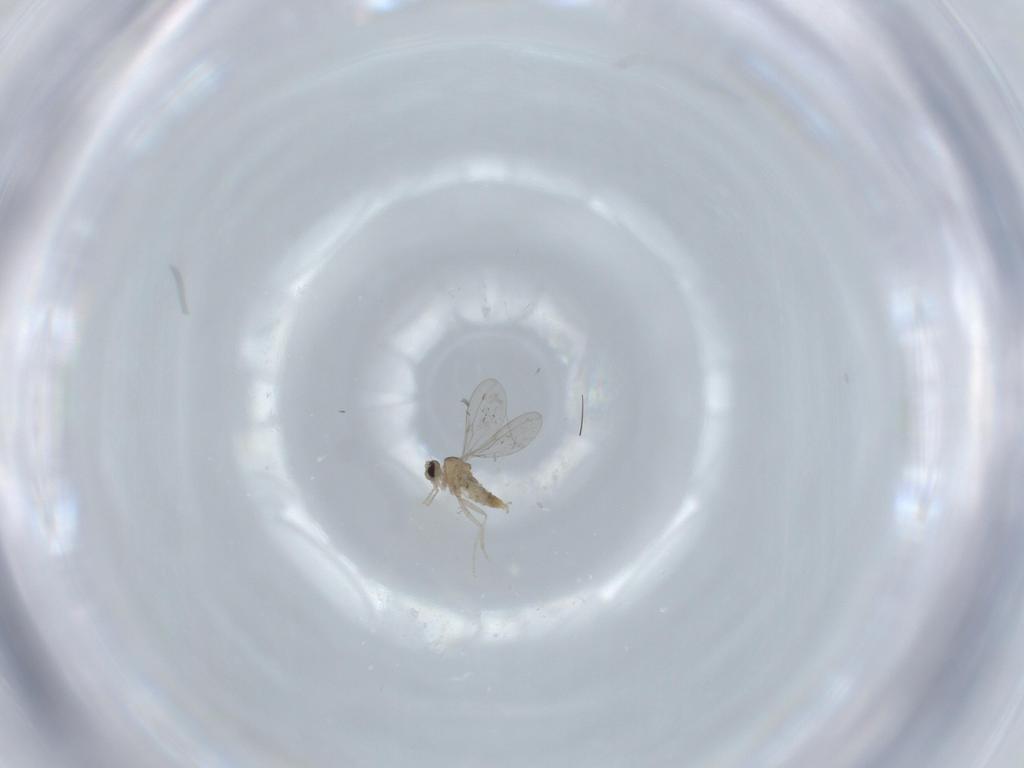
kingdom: Animalia
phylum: Arthropoda
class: Insecta
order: Diptera
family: Cecidomyiidae
